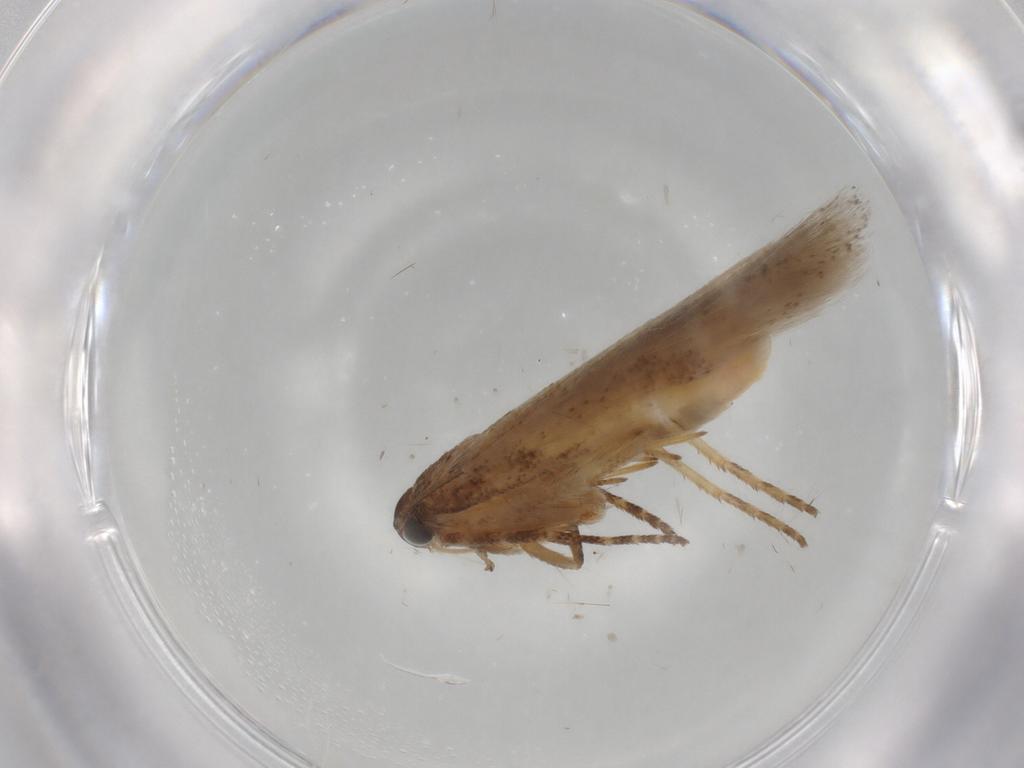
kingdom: Animalia
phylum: Arthropoda
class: Insecta
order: Lepidoptera
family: Gelechiidae
